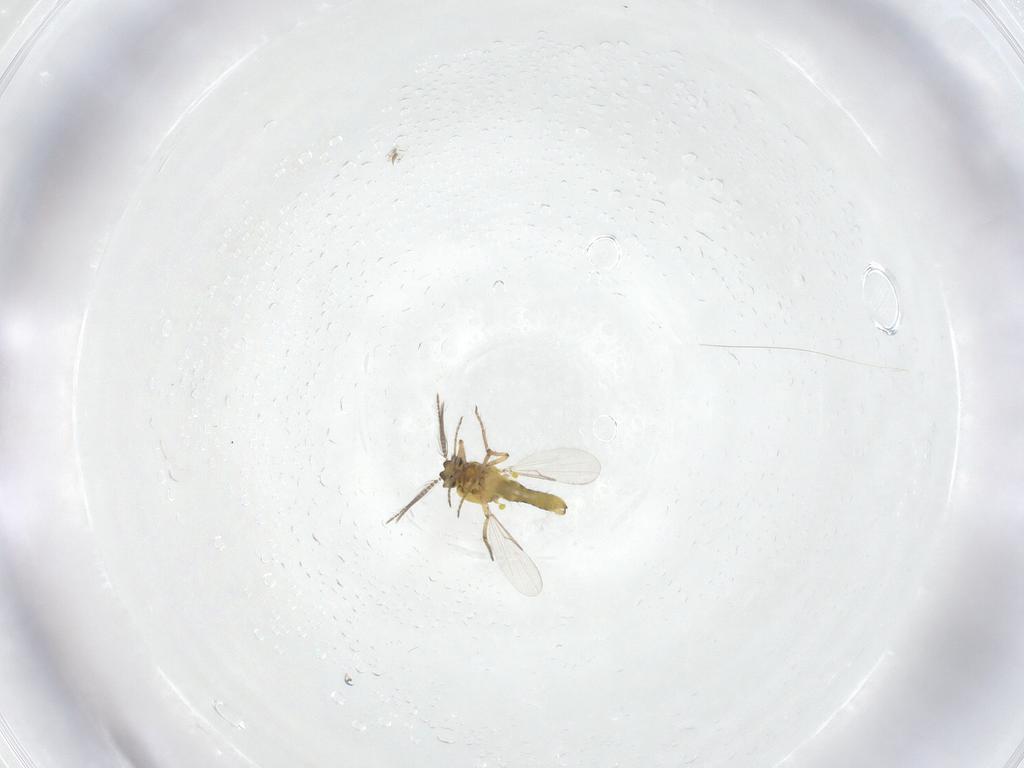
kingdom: Animalia
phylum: Arthropoda
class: Insecta
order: Diptera
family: Ceratopogonidae
